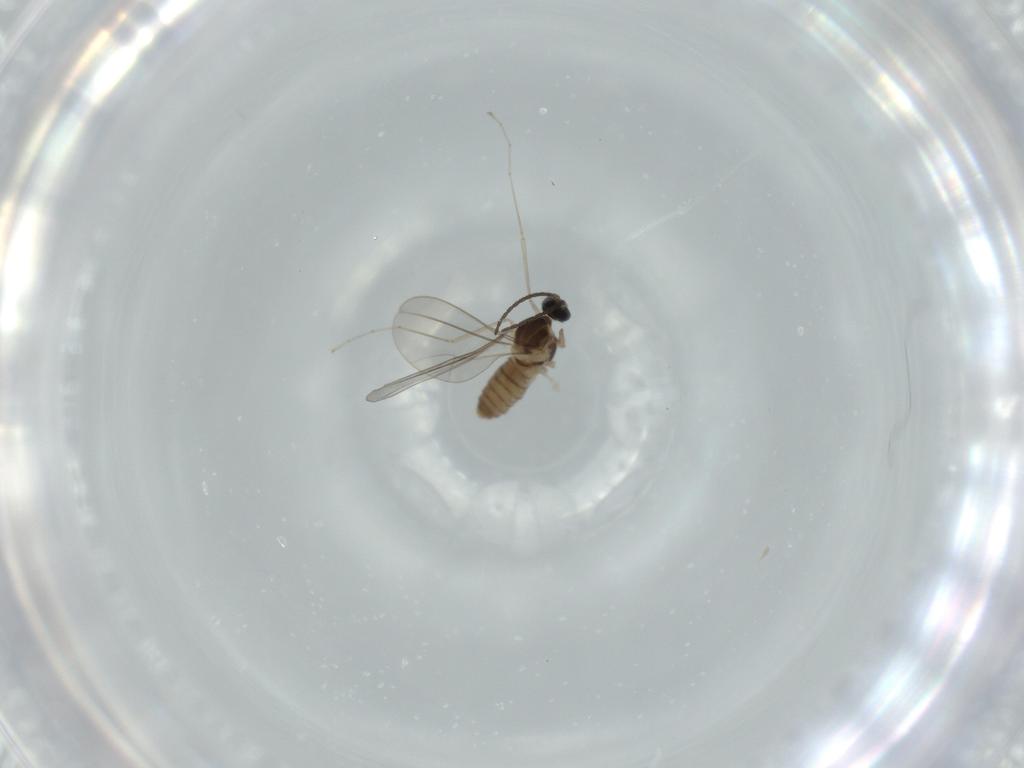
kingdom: Animalia
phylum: Arthropoda
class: Insecta
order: Diptera
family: Cecidomyiidae
